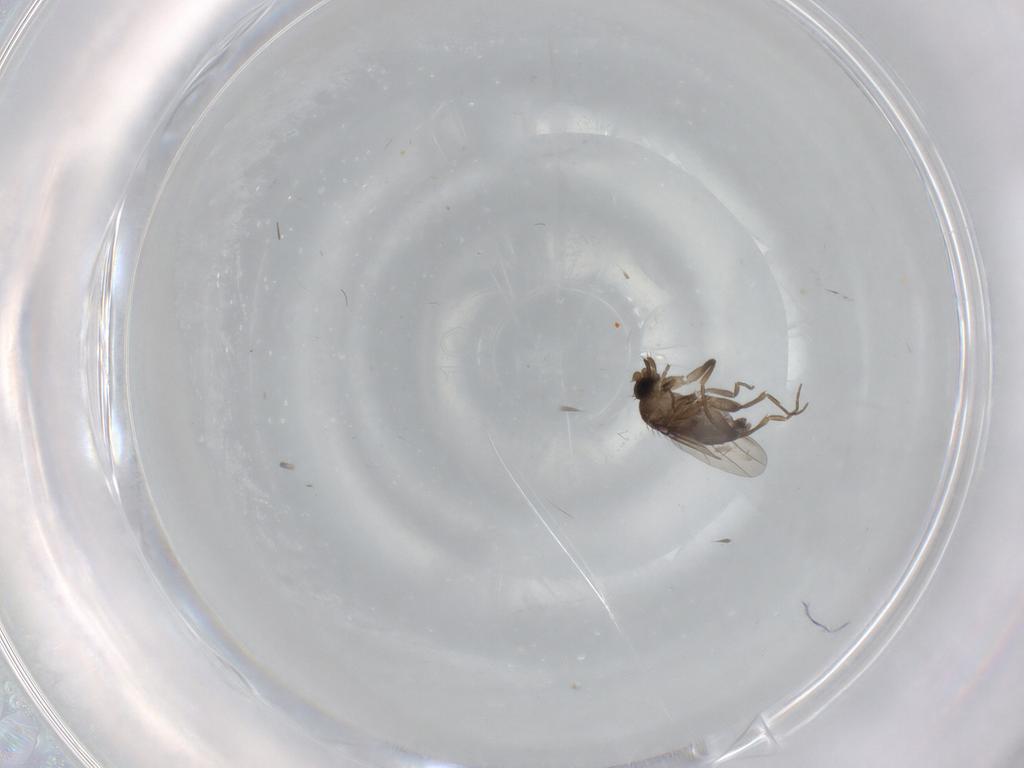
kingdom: Animalia
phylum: Arthropoda
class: Insecta
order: Diptera
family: Phoridae
